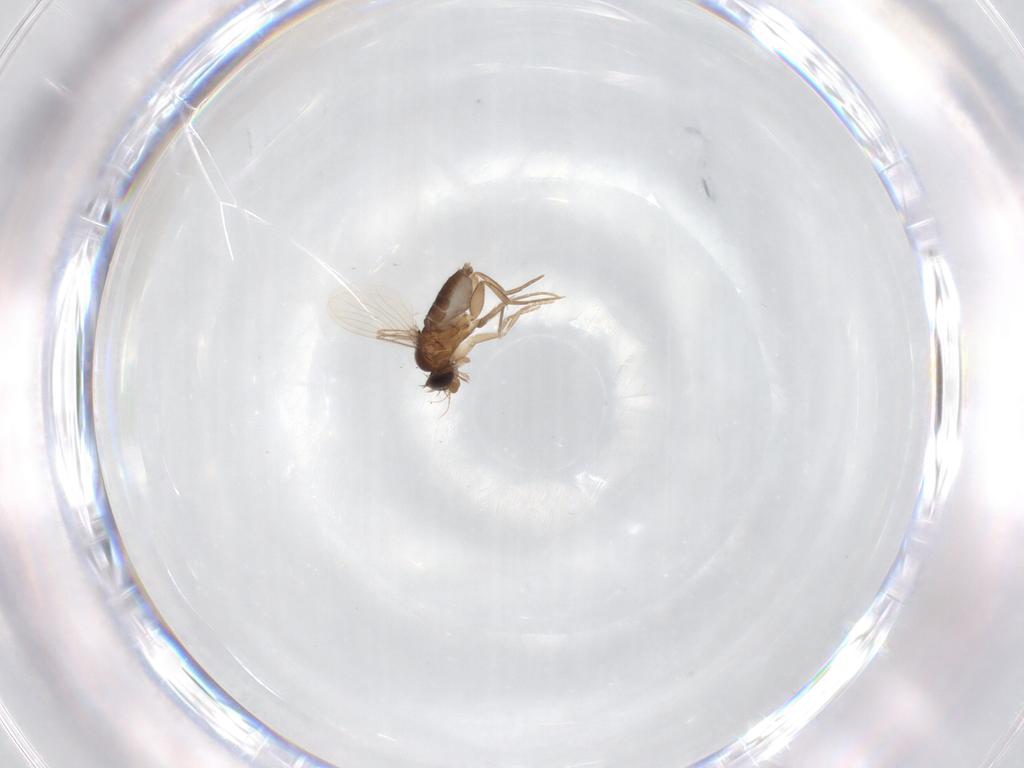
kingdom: Animalia
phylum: Arthropoda
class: Insecta
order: Diptera
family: Phoridae
